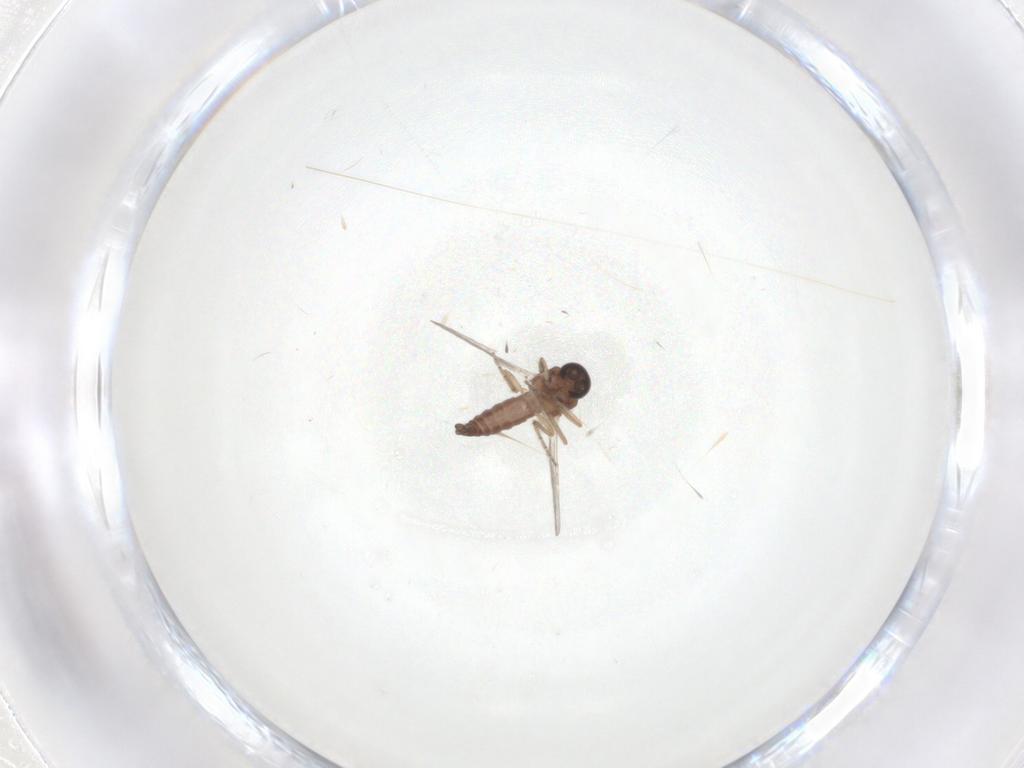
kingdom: Animalia
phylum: Arthropoda
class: Insecta
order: Diptera
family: Ceratopogonidae
